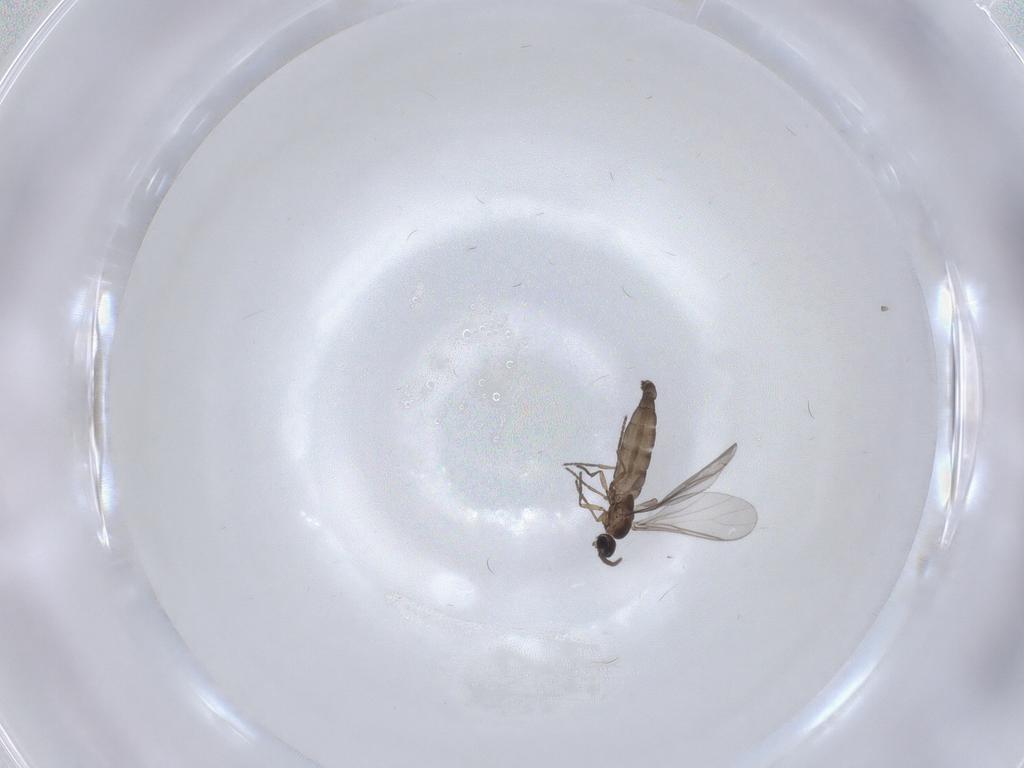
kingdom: Animalia
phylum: Arthropoda
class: Insecta
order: Diptera
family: Sciaridae
